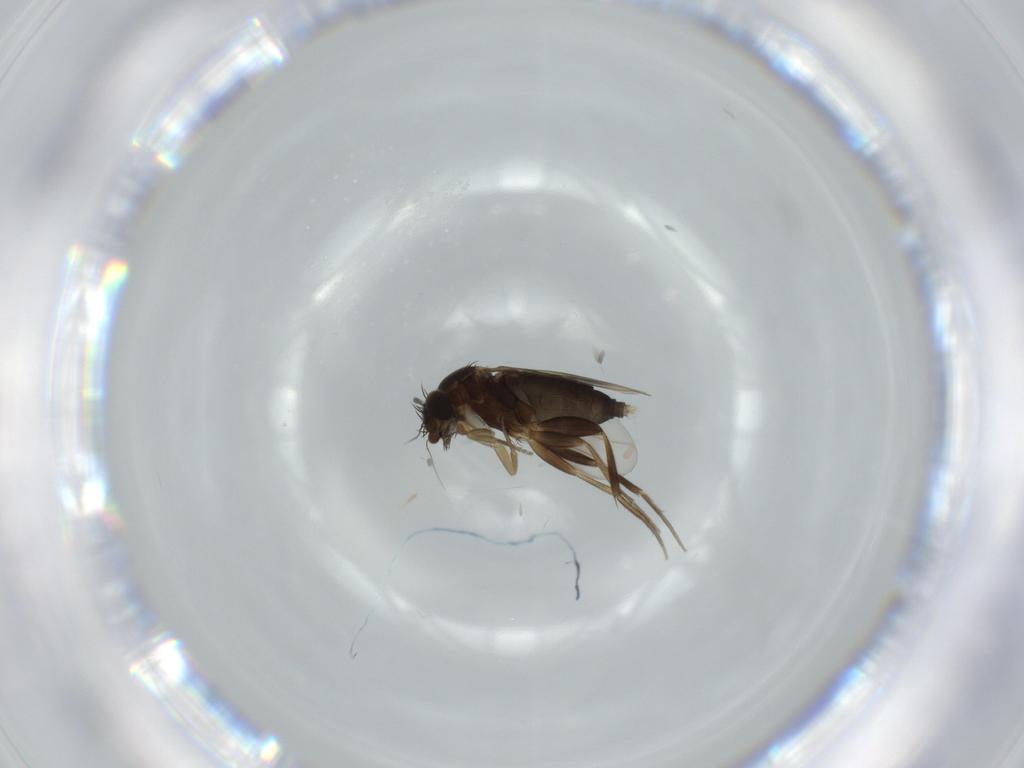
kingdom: Animalia
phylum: Arthropoda
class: Insecta
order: Diptera
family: Phoridae
